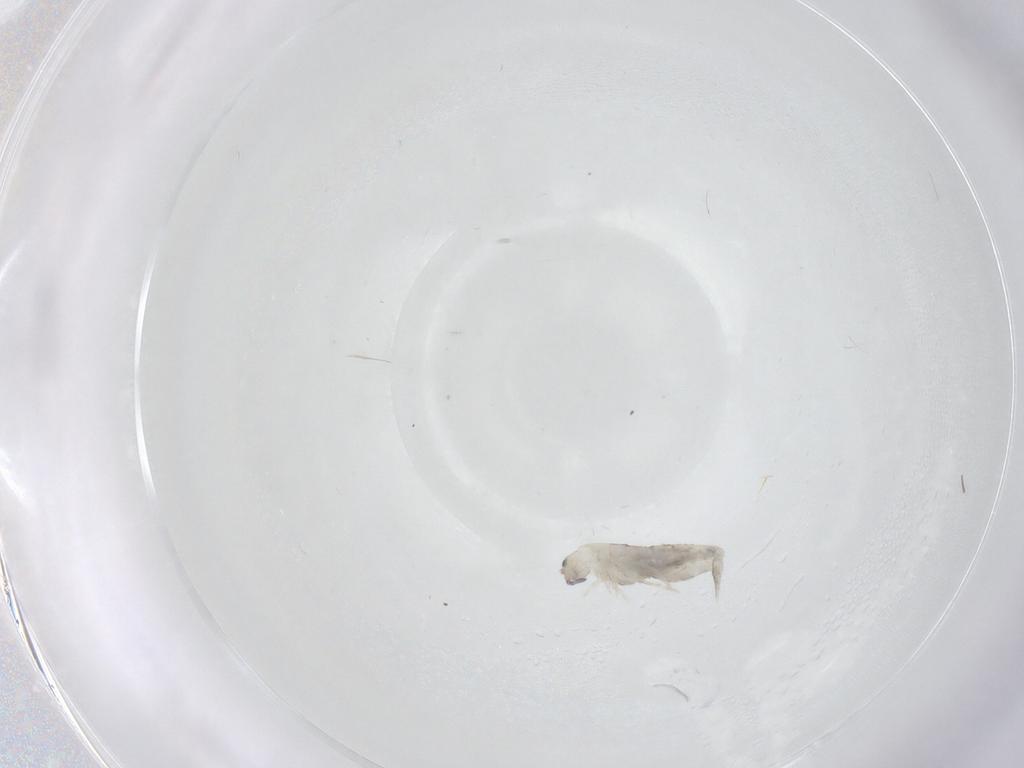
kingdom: Animalia
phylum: Arthropoda
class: Collembola
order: Entomobryomorpha
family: Entomobryidae
